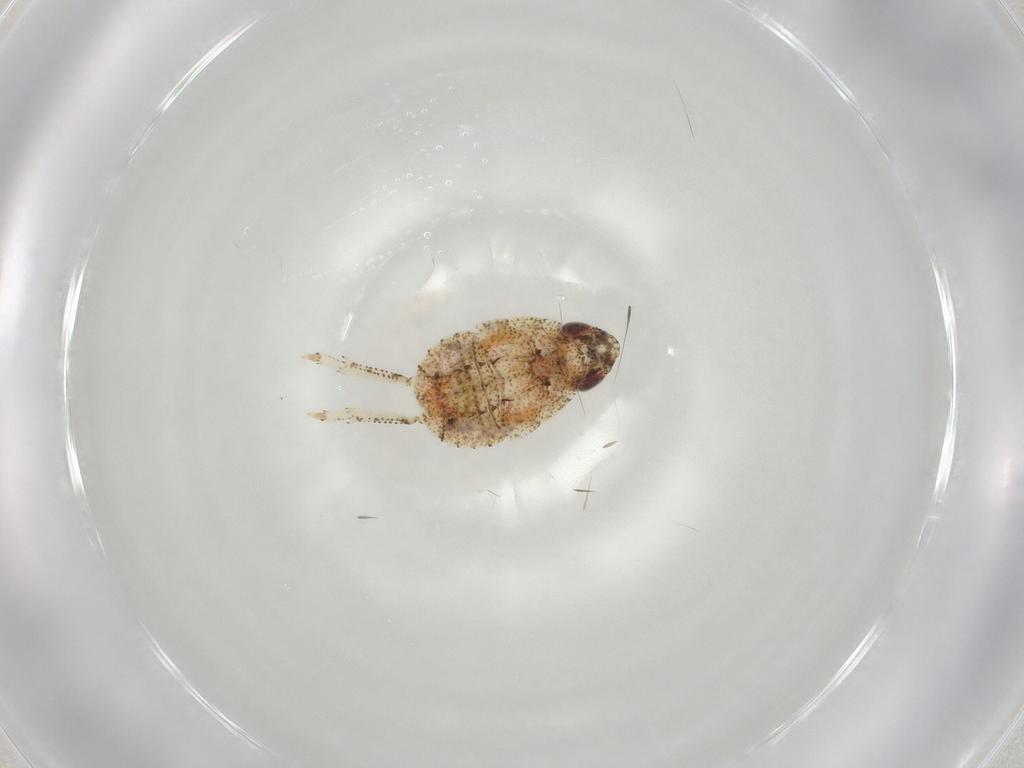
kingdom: Animalia
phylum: Arthropoda
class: Insecta
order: Hemiptera
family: Gengidae
